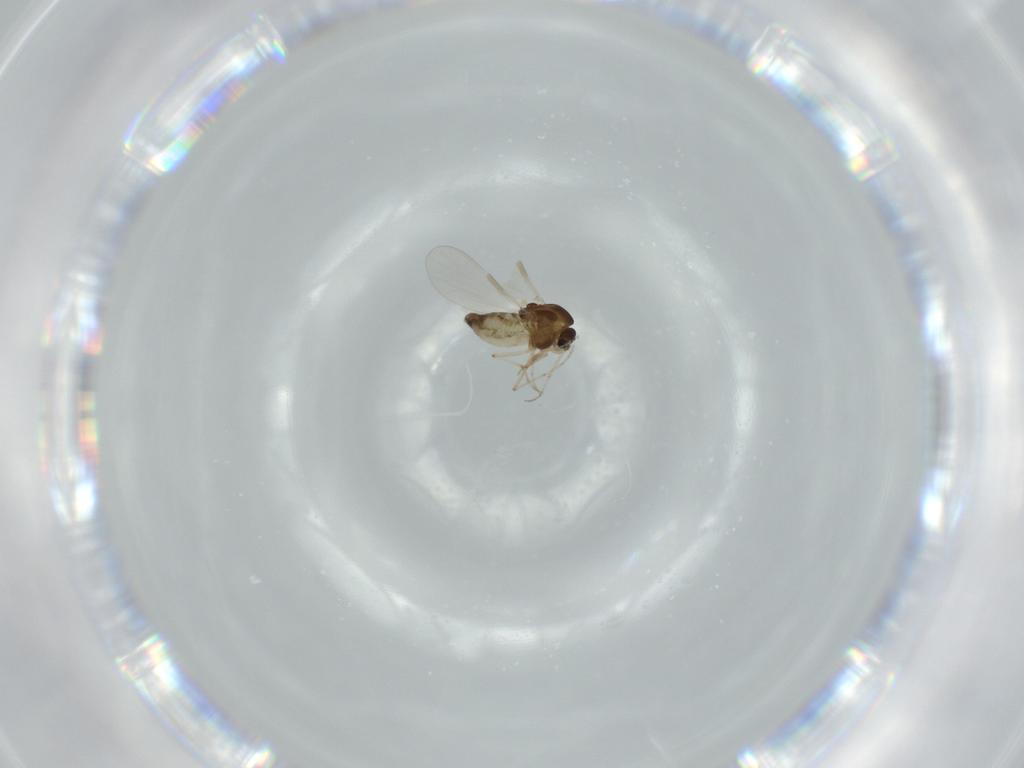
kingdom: Animalia
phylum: Arthropoda
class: Insecta
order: Diptera
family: Chironomidae
